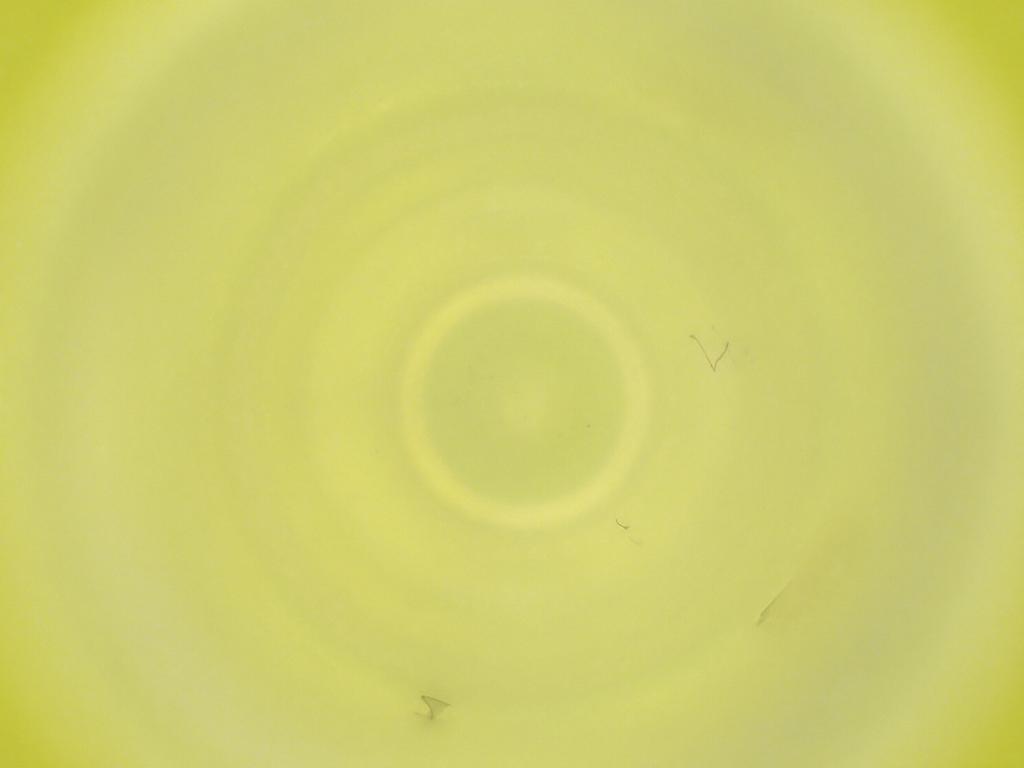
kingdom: Animalia
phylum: Arthropoda
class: Insecta
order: Diptera
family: Cecidomyiidae
